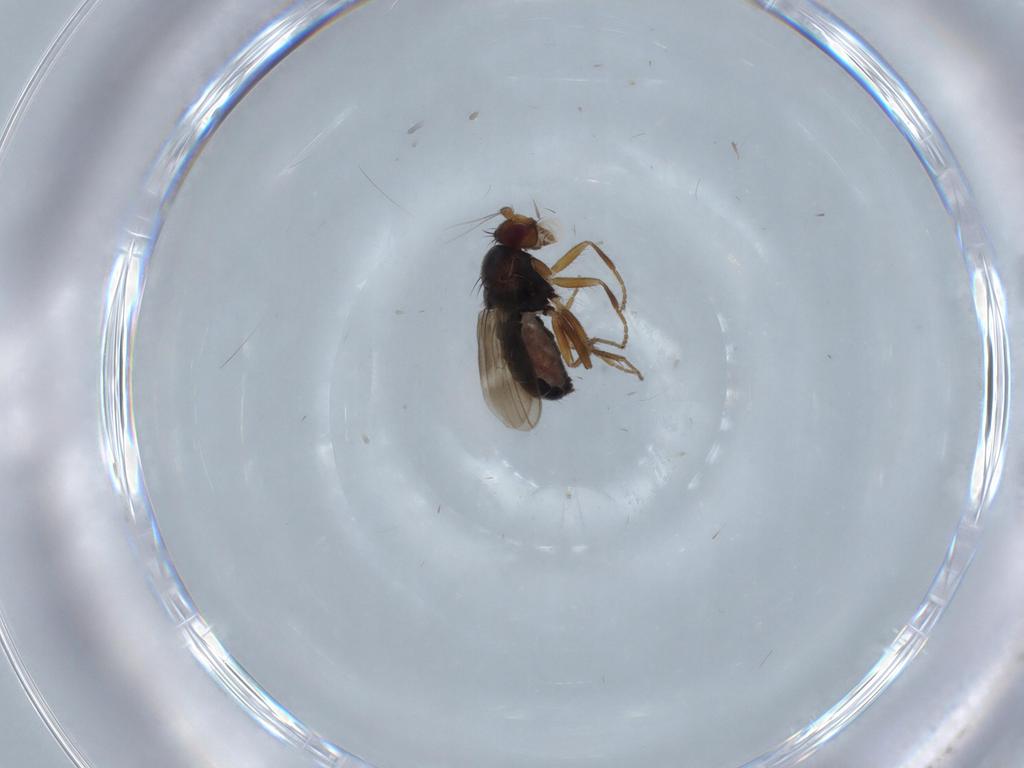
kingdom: Animalia
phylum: Arthropoda
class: Insecta
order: Diptera
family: Sphaeroceridae
